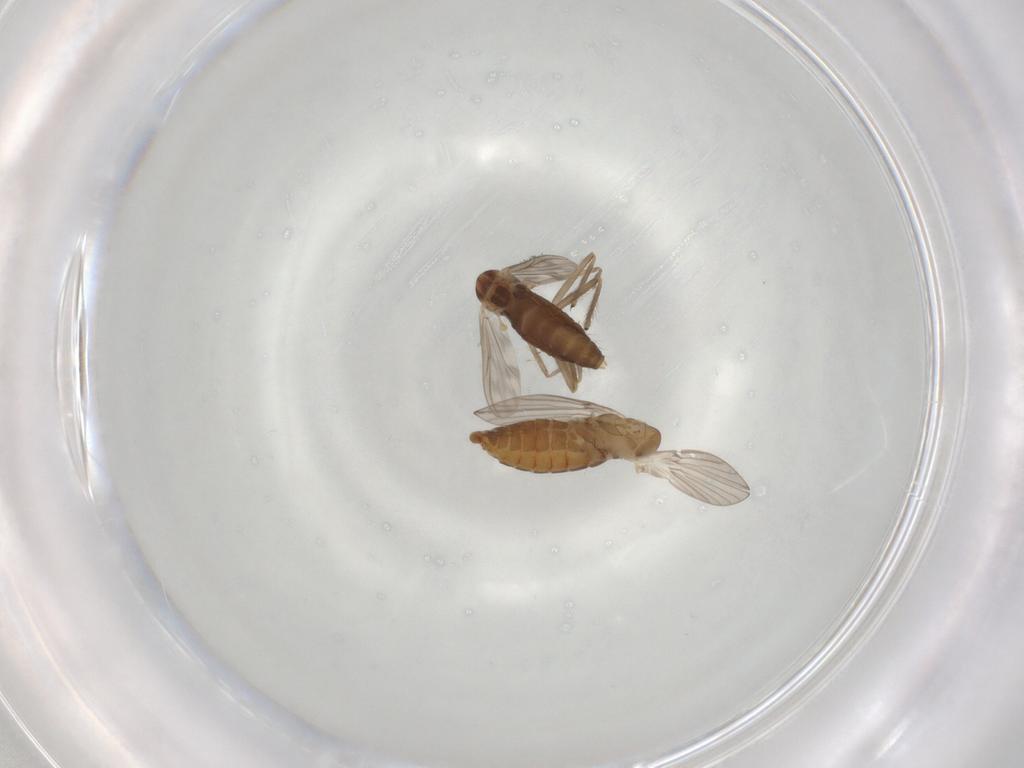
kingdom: Animalia
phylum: Arthropoda
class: Insecta
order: Diptera
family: Chironomidae
